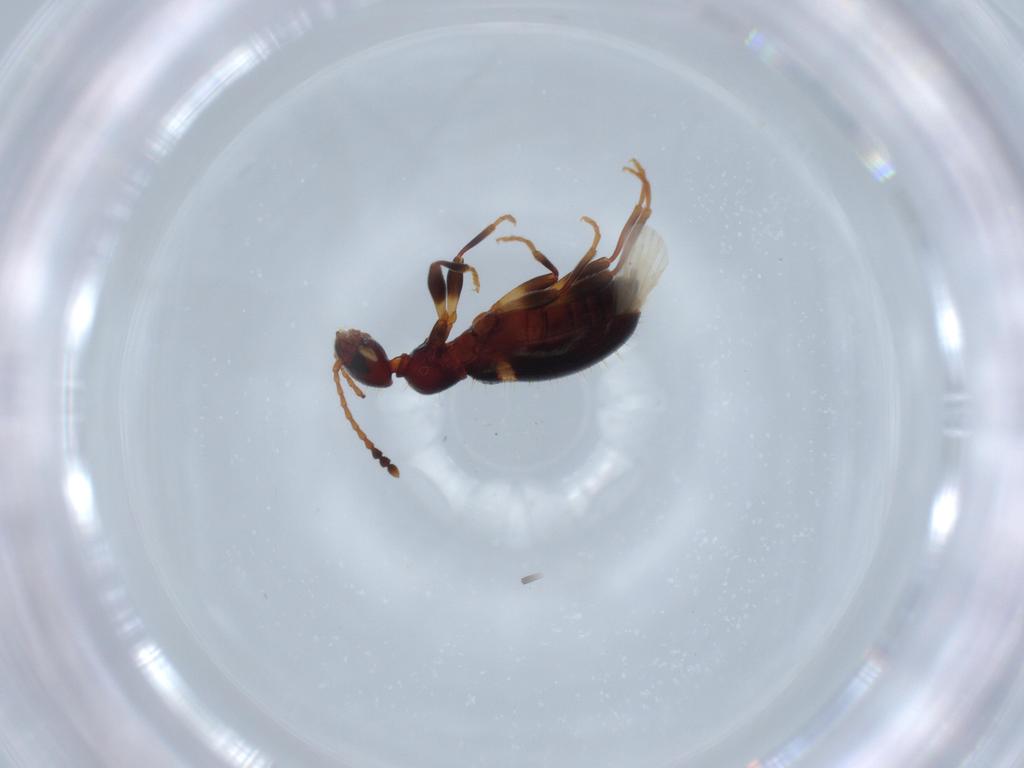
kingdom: Animalia
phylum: Arthropoda
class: Insecta
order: Coleoptera
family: Anthicidae
